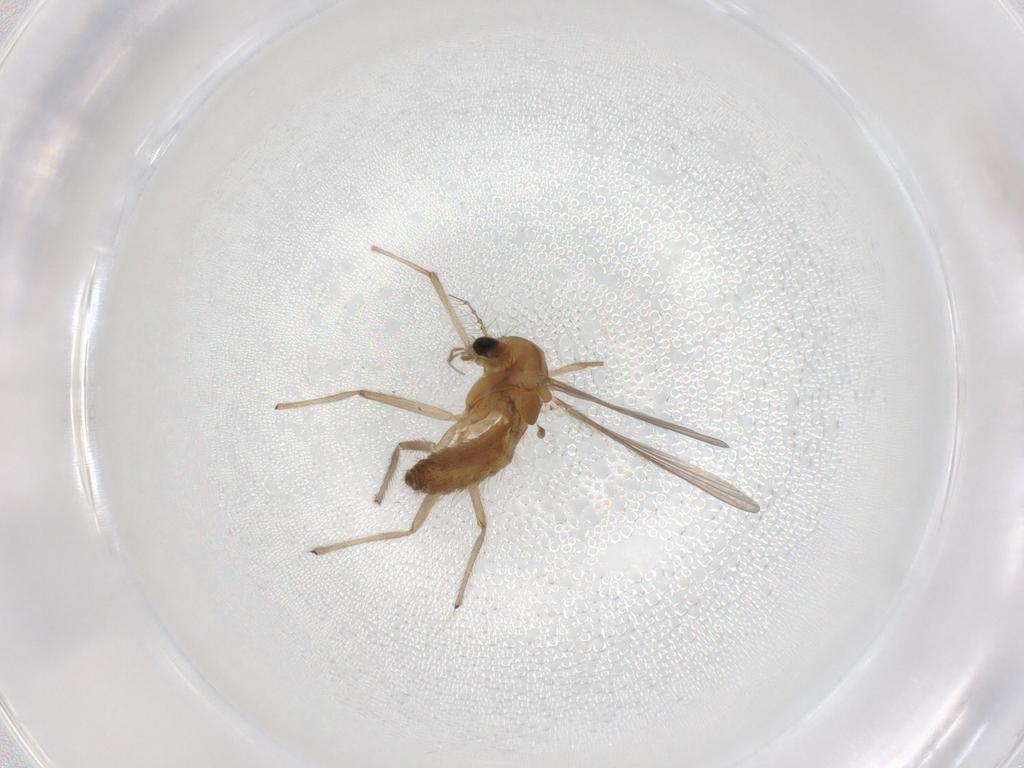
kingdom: Animalia
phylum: Arthropoda
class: Insecta
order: Diptera
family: Chironomidae
